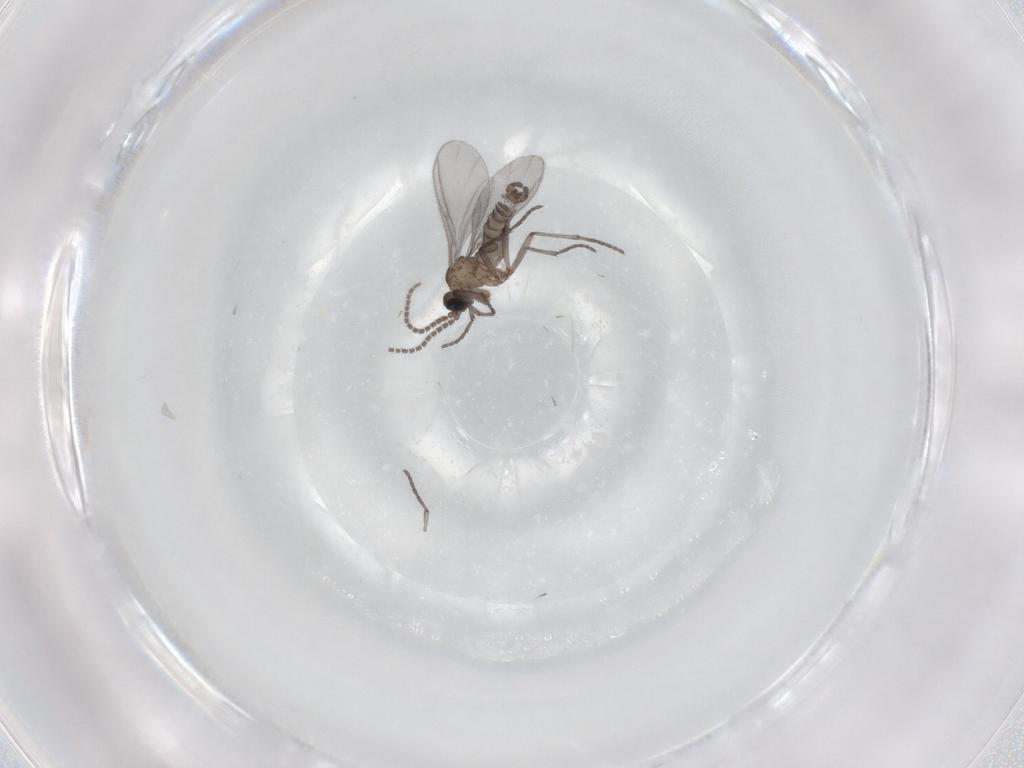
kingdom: Animalia
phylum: Arthropoda
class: Insecta
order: Diptera
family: Sciaridae
